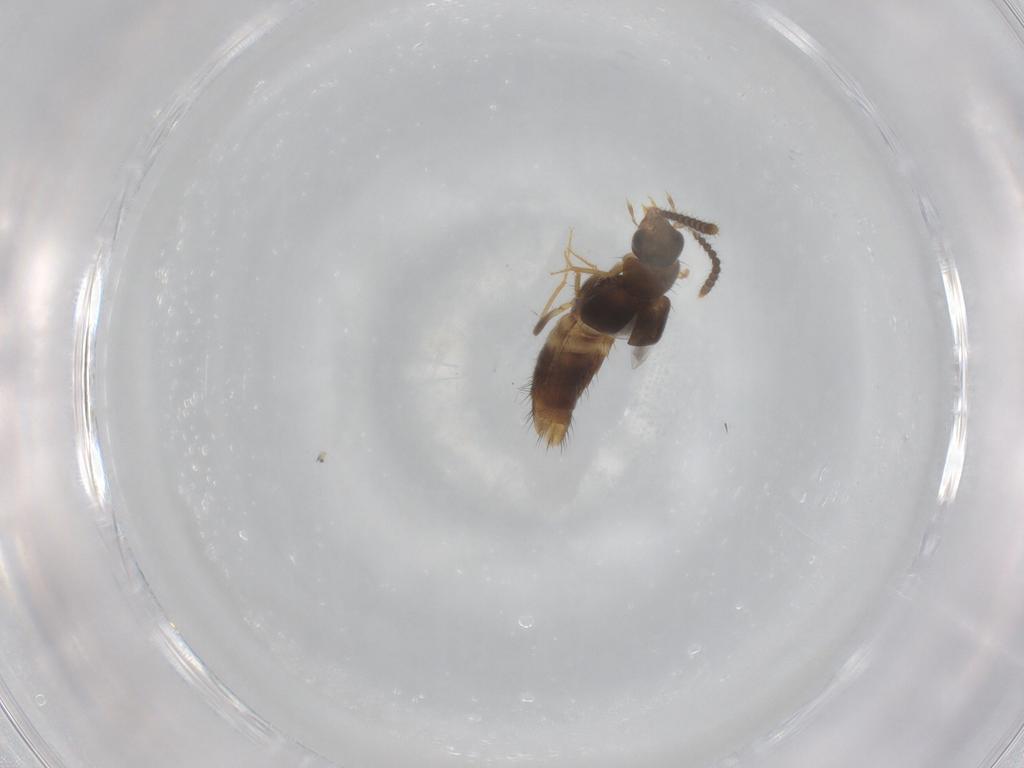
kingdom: Animalia
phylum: Arthropoda
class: Insecta
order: Coleoptera
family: Staphylinidae
